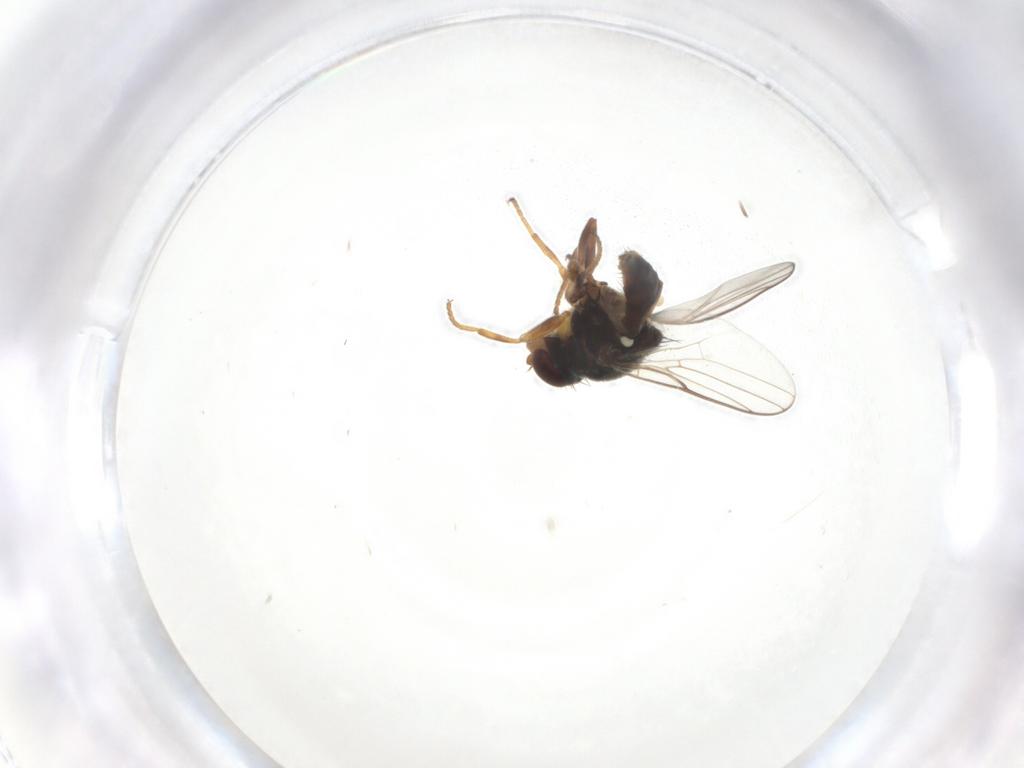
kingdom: Animalia
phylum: Arthropoda
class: Insecta
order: Diptera
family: Chloropidae
